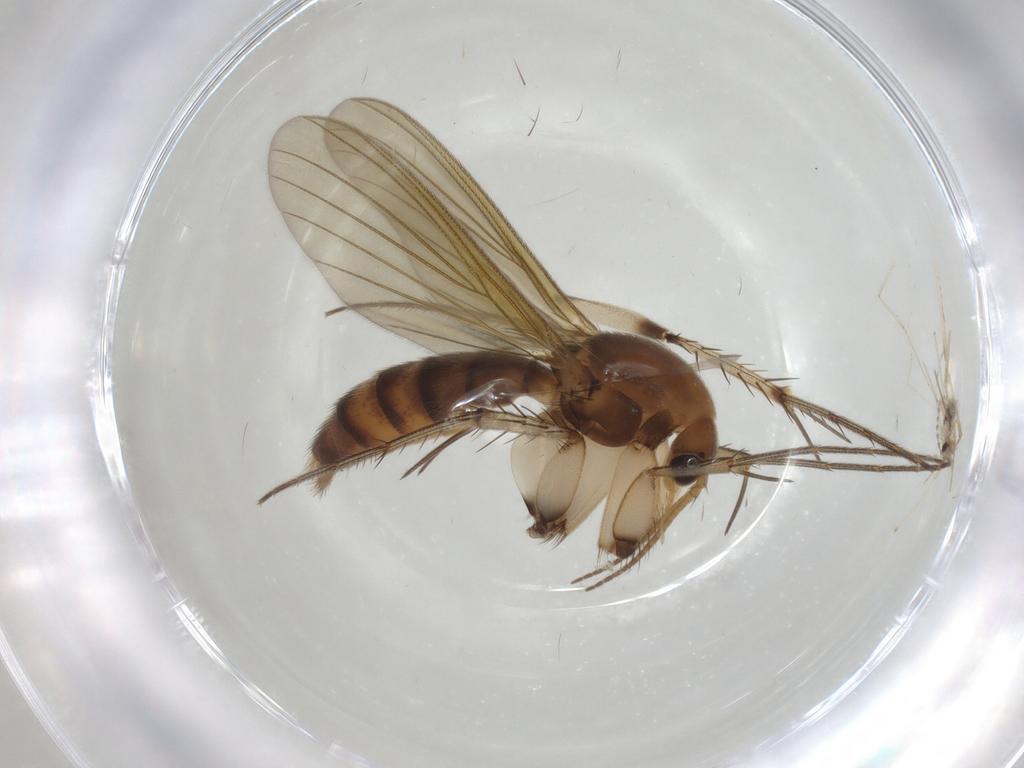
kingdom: Animalia
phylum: Arthropoda
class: Insecta
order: Diptera
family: Mycetophilidae
